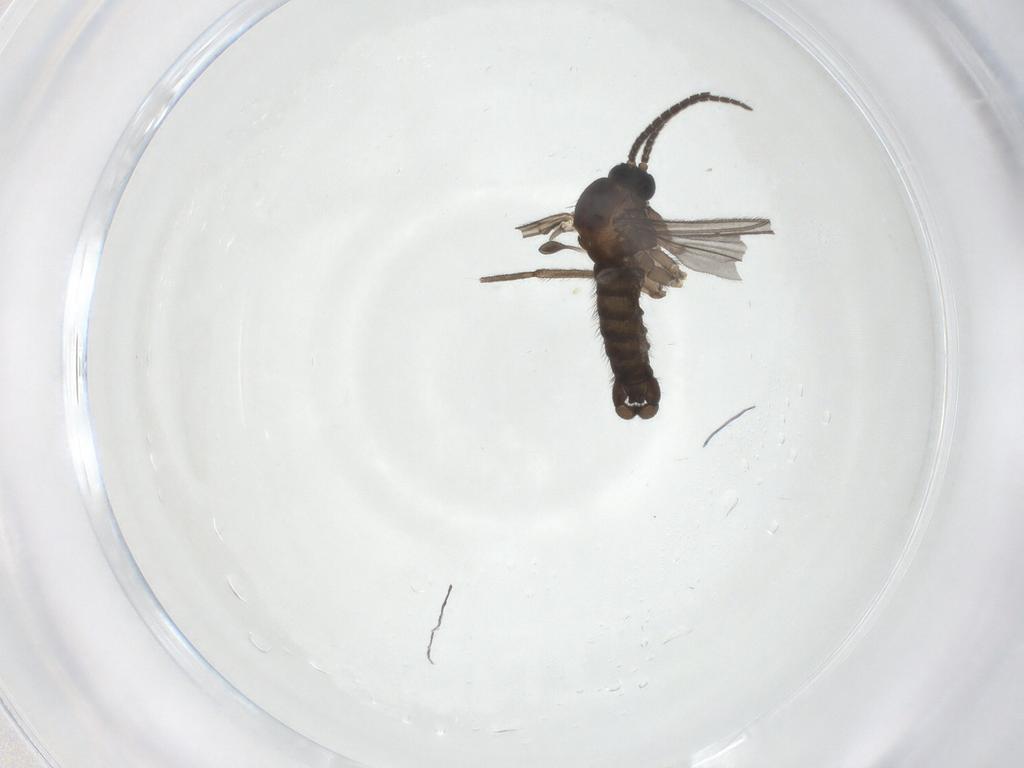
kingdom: Animalia
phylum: Arthropoda
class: Insecta
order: Diptera
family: Sciaridae
